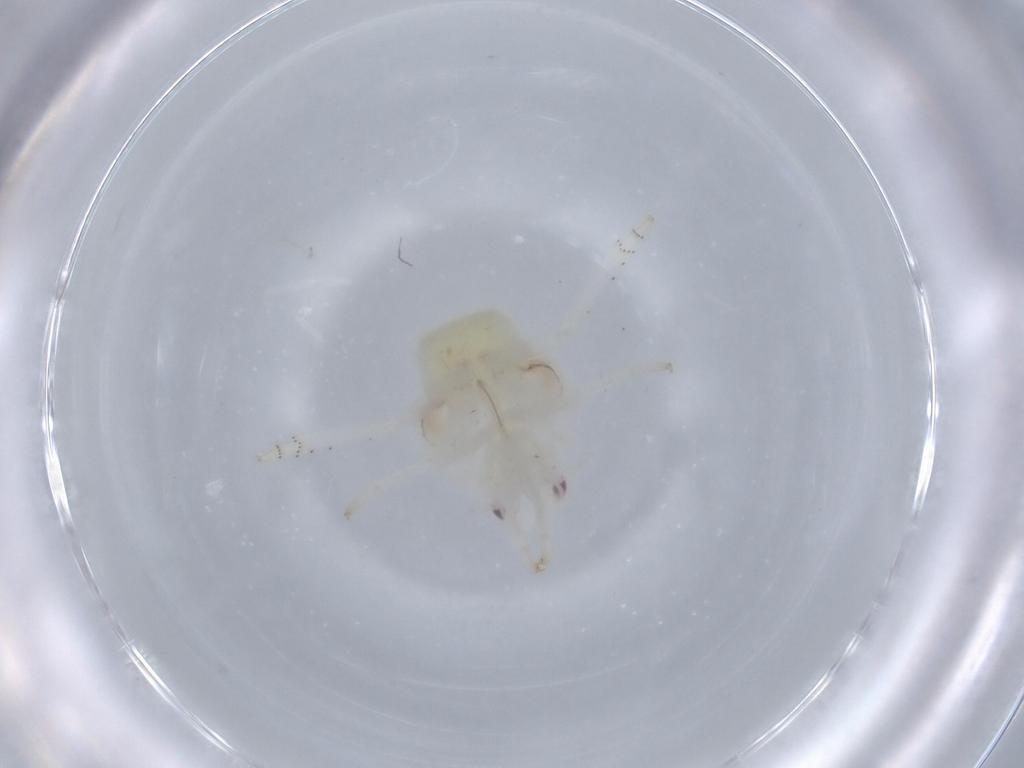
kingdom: Animalia
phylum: Arthropoda
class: Insecta
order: Hemiptera
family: Flatidae
